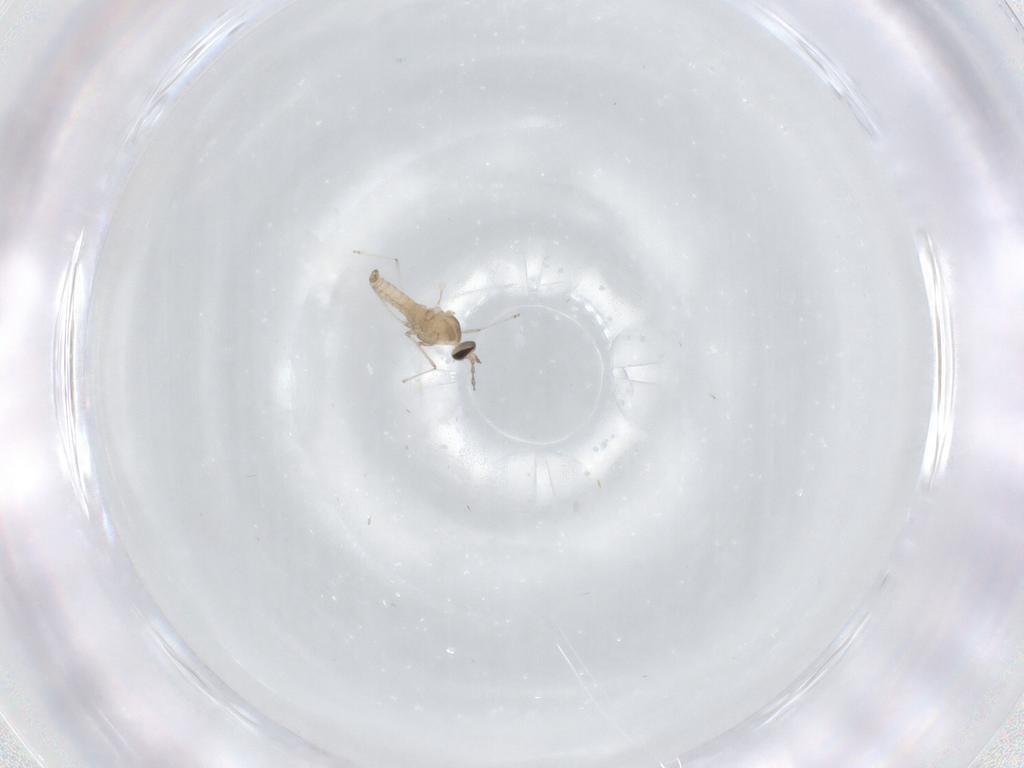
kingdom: Animalia
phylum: Arthropoda
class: Insecta
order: Diptera
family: Cecidomyiidae
